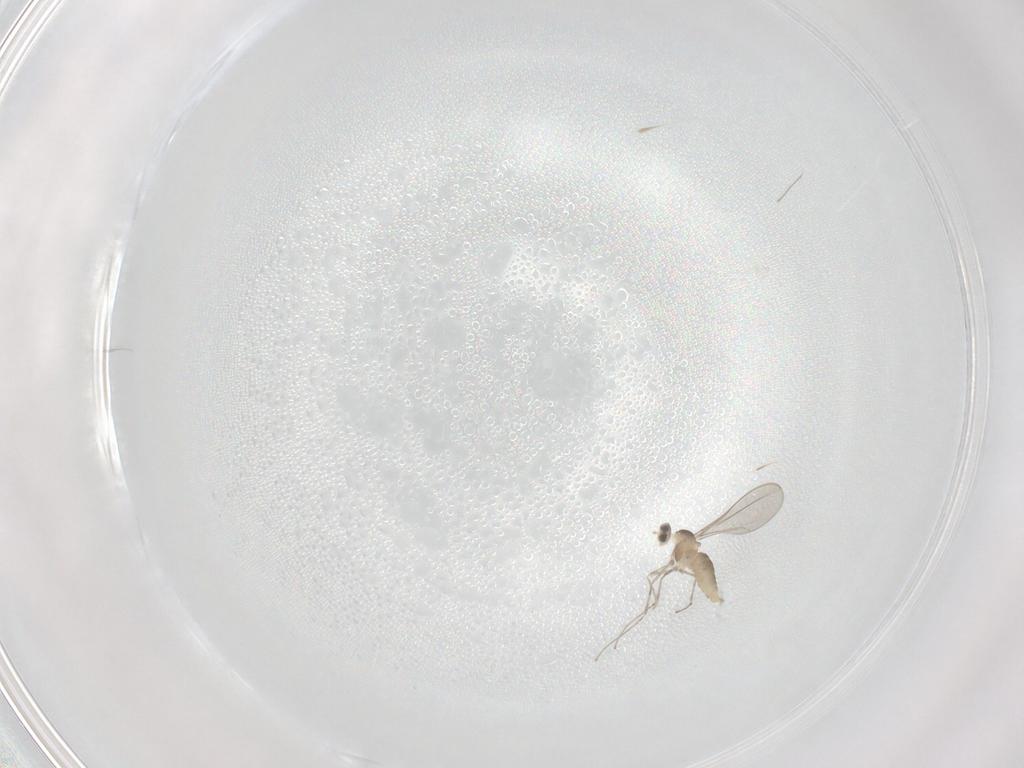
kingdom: Animalia
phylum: Arthropoda
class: Insecta
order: Diptera
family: Cecidomyiidae
